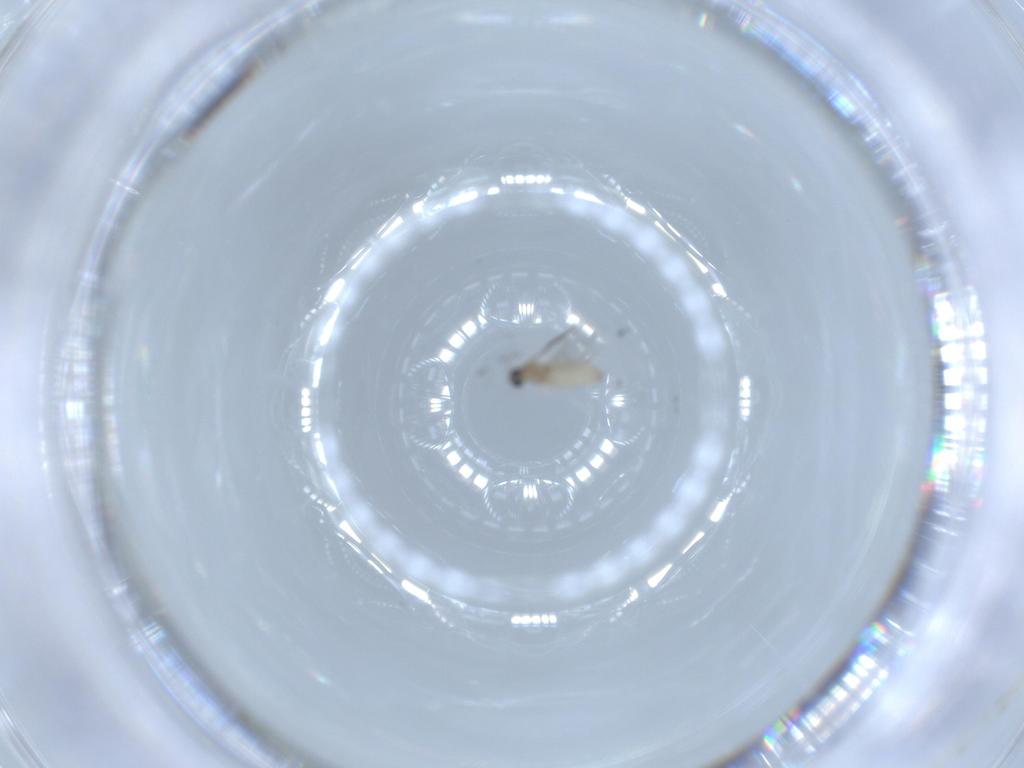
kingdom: Animalia
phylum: Arthropoda
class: Insecta
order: Diptera
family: Cecidomyiidae
